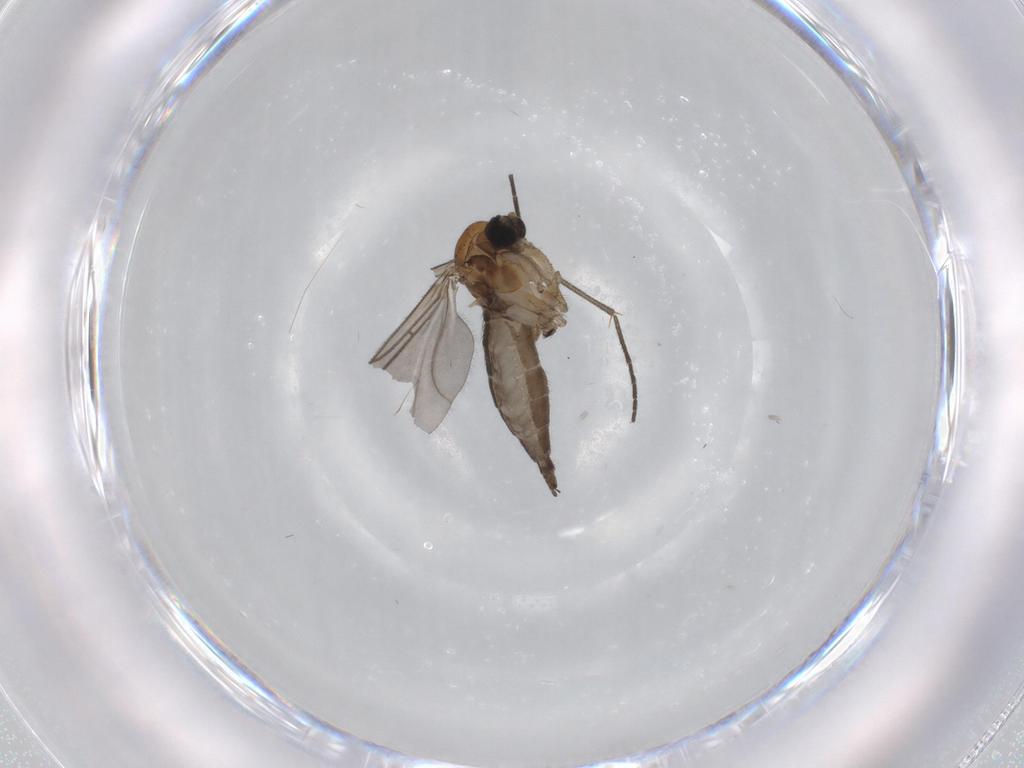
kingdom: Animalia
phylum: Arthropoda
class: Insecta
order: Diptera
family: Sciaridae
